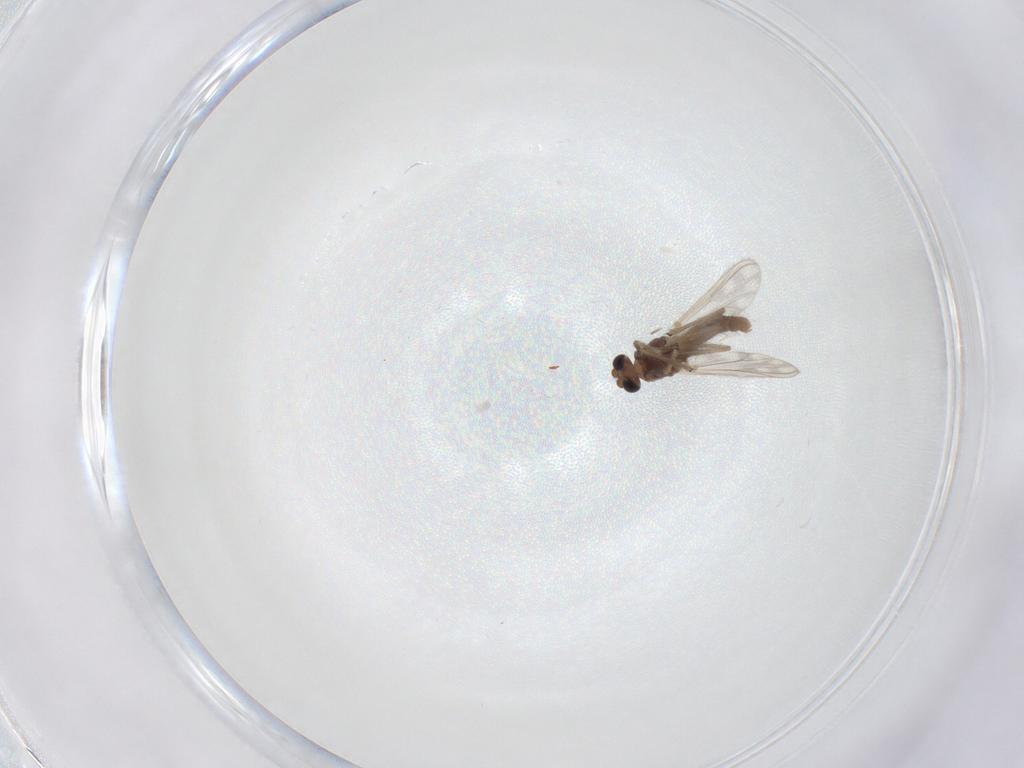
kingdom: Animalia
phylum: Arthropoda
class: Insecta
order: Diptera
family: Chironomidae
